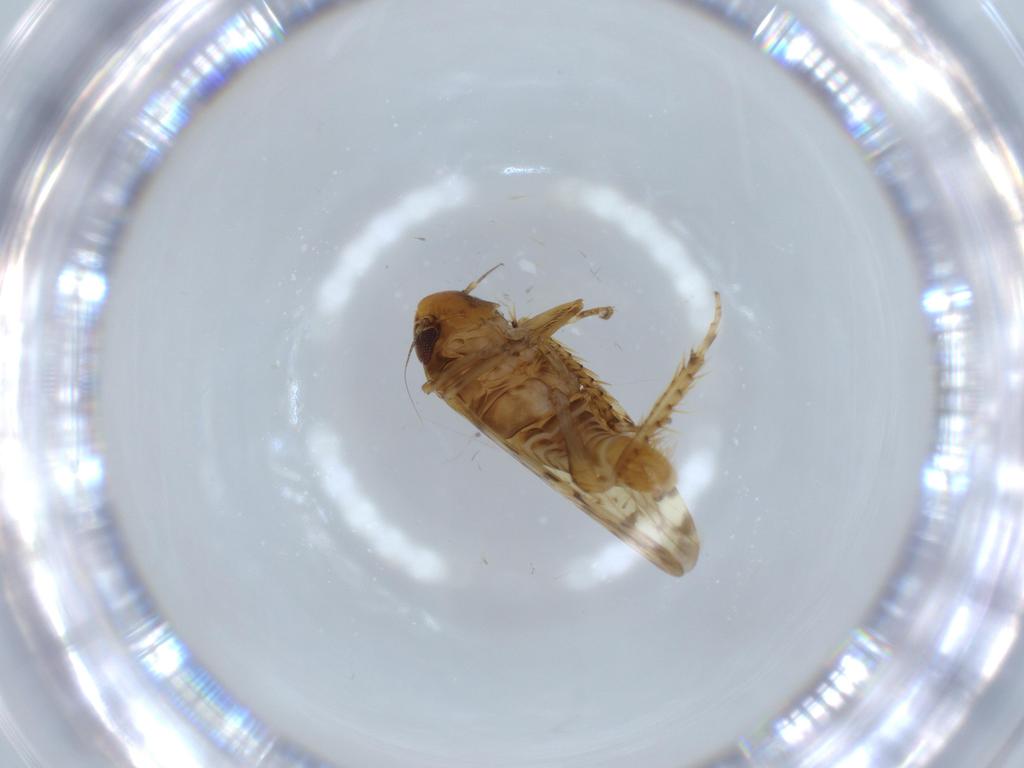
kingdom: Animalia
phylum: Arthropoda
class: Insecta
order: Hemiptera
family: Cicadellidae
